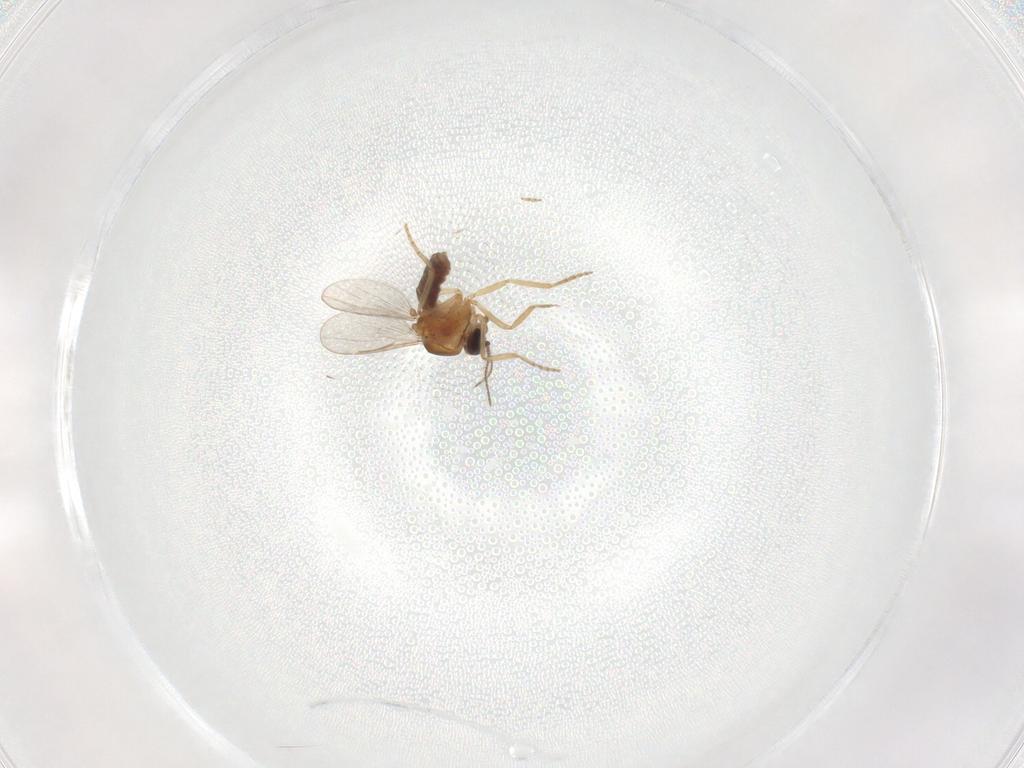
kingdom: Animalia
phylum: Arthropoda
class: Insecta
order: Diptera
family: Cecidomyiidae
